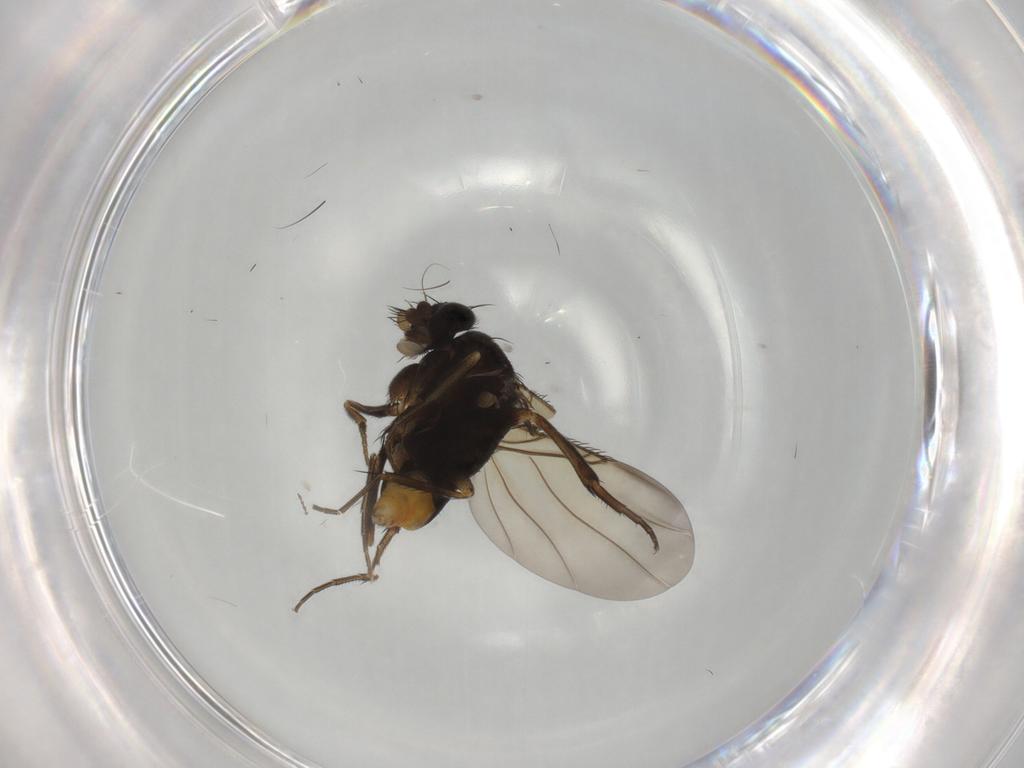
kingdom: Animalia
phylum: Arthropoda
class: Insecta
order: Diptera
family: Phoridae
